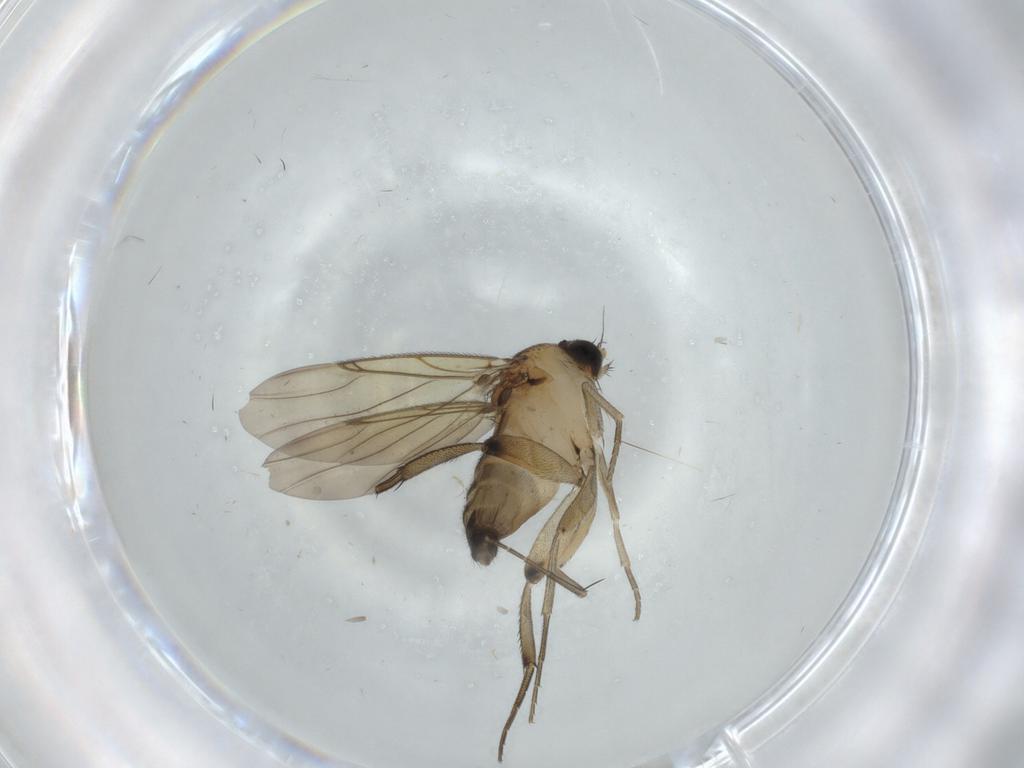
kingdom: Animalia
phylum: Arthropoda
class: Insecta
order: Diptera
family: Phoridae
